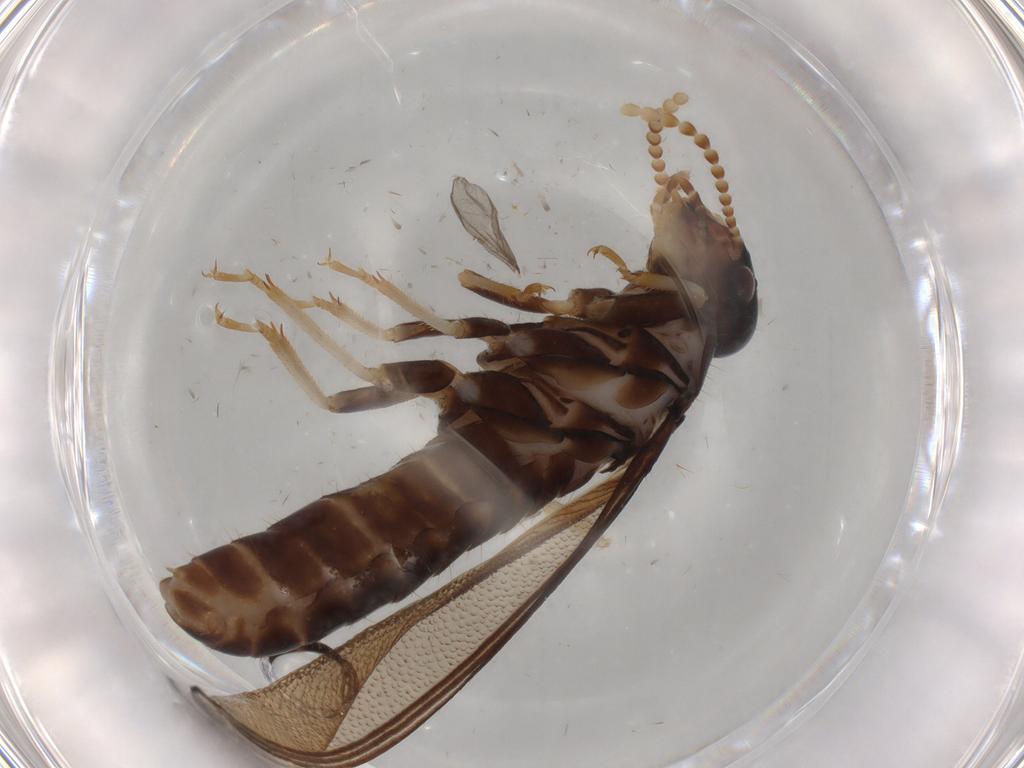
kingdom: Animalia
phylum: Arthropoda
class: Insecta
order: Blattodea
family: Kalotermitidae
